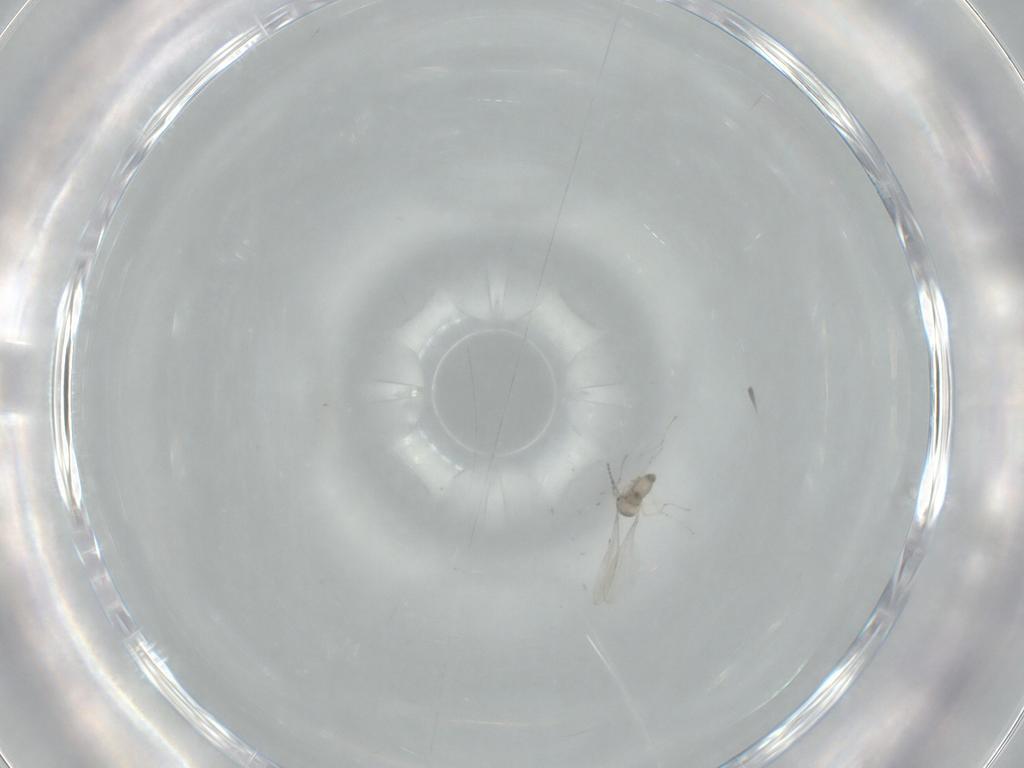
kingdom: Animalia
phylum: Arthropoda
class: Insecta
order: Diptera
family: Cecidomyiidae
